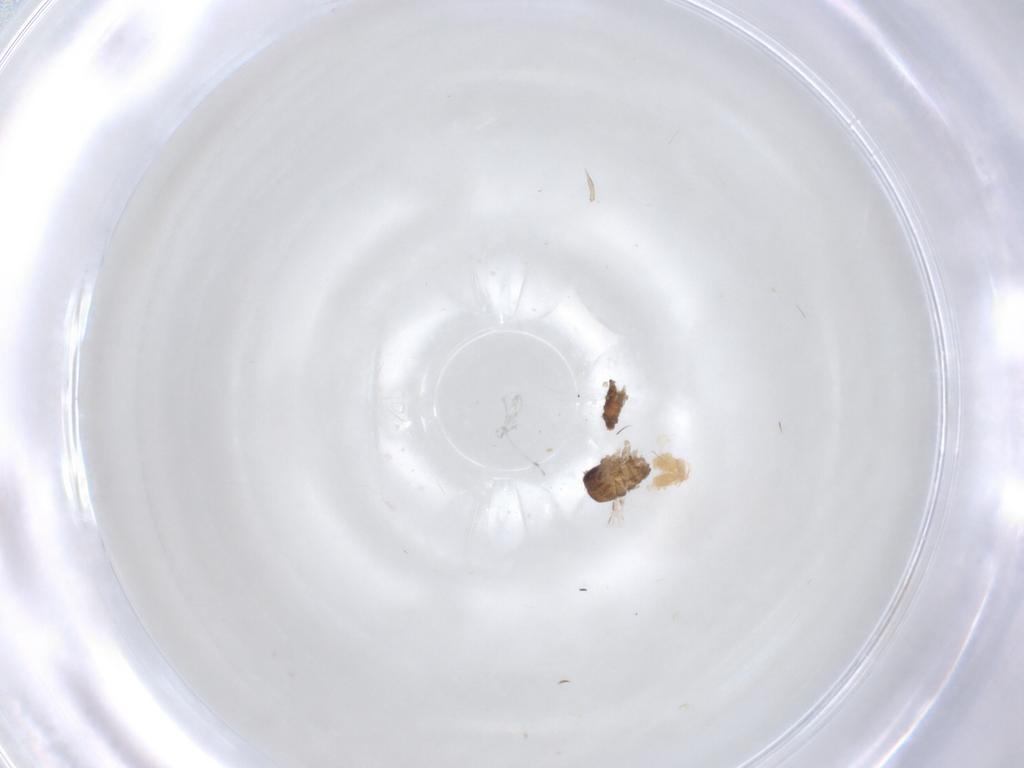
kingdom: Animalia
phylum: Arthropoda
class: Insecta
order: Diptera
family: Psychodidae
